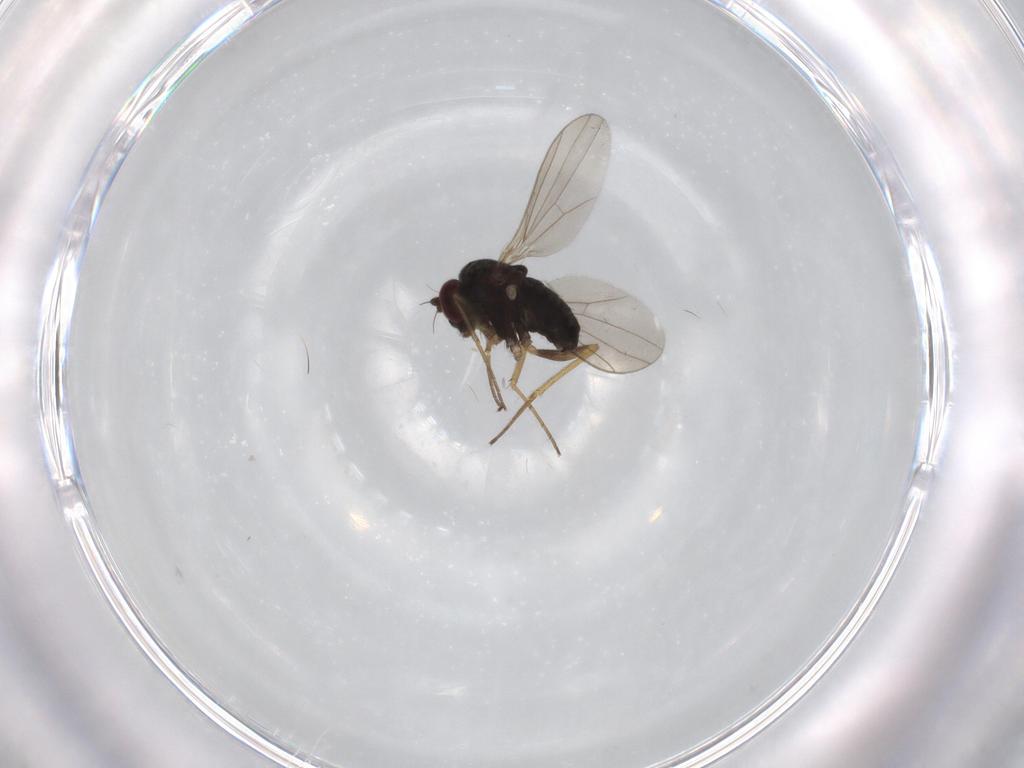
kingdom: Animalia
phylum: Arthropoda
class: Insecta
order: Diptera
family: Dolichopodidae
